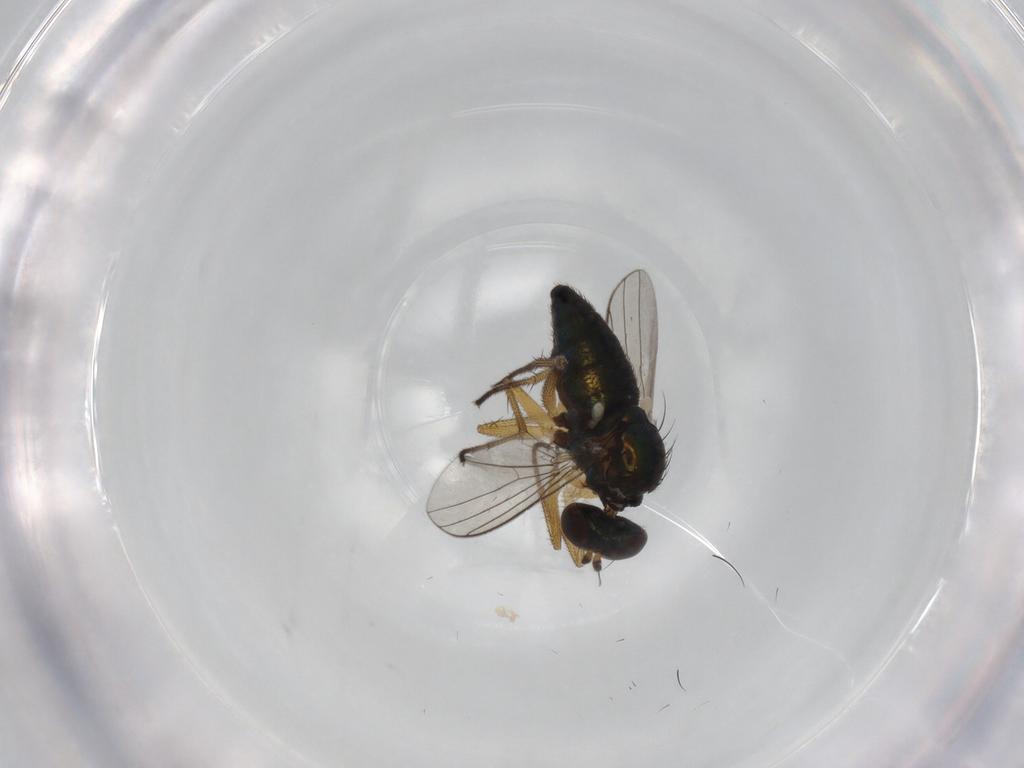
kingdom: Animalia
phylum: Arthropoda
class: Insecta
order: Diptera
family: Dolichopodidae
